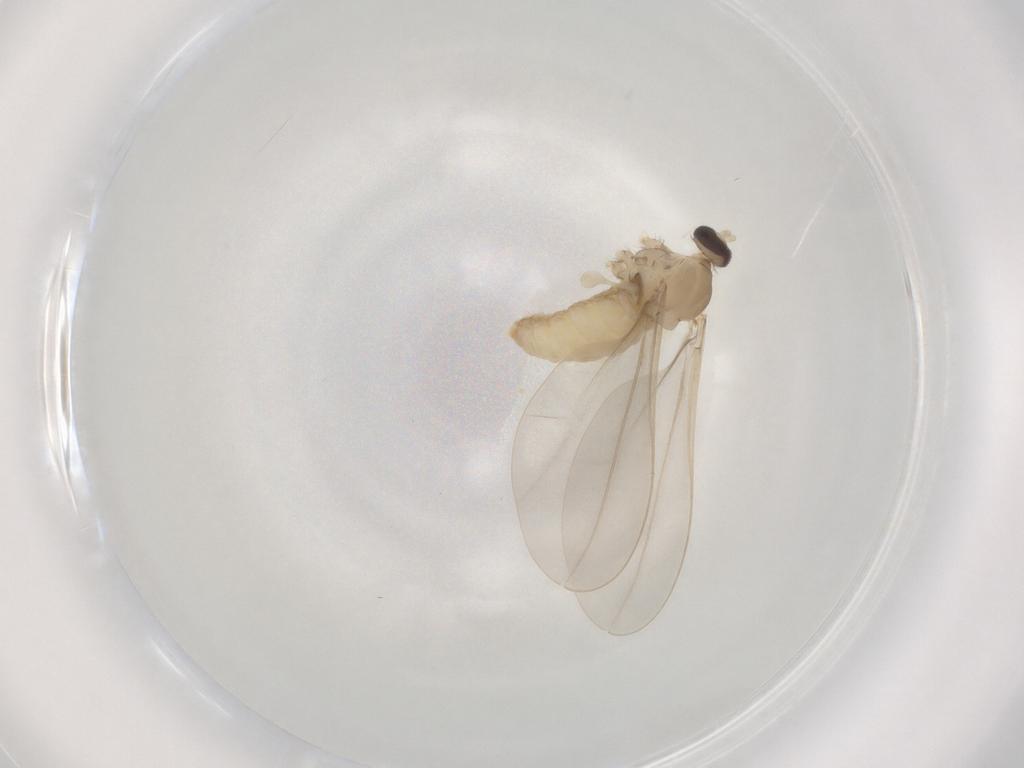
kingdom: Animalia
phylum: Arthropoda
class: Insecta
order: Diptera
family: Cecidomyiidae
